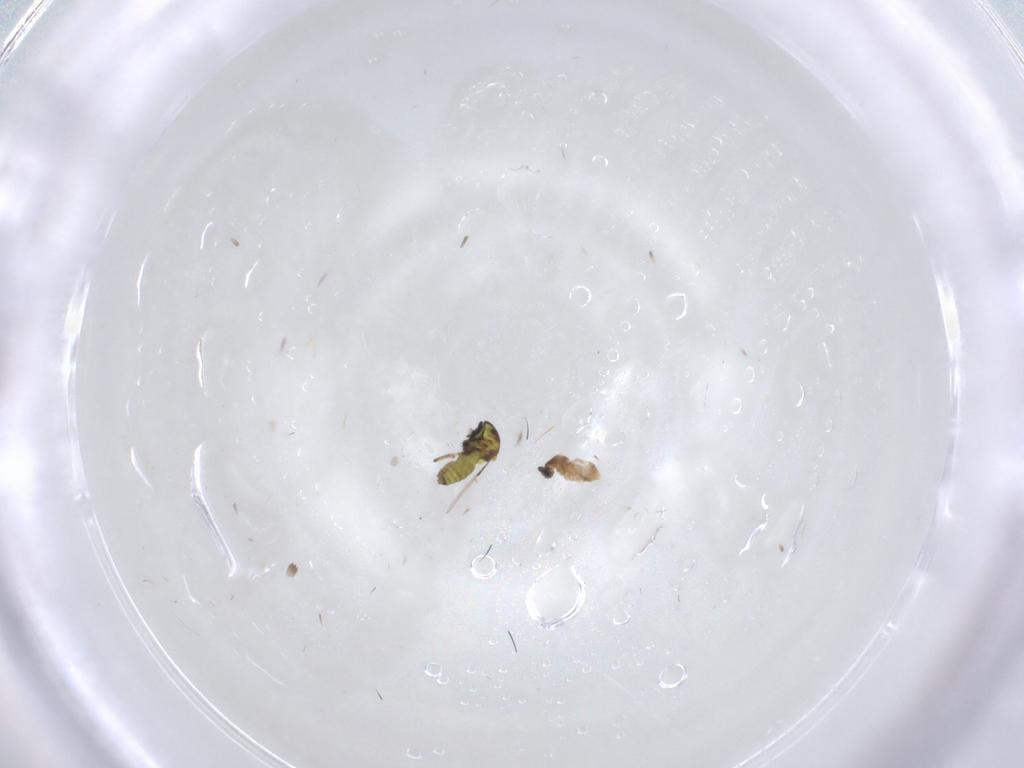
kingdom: Animalia
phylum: Arthropoda
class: Insecta
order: Diptera
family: Ceratopogonidae
